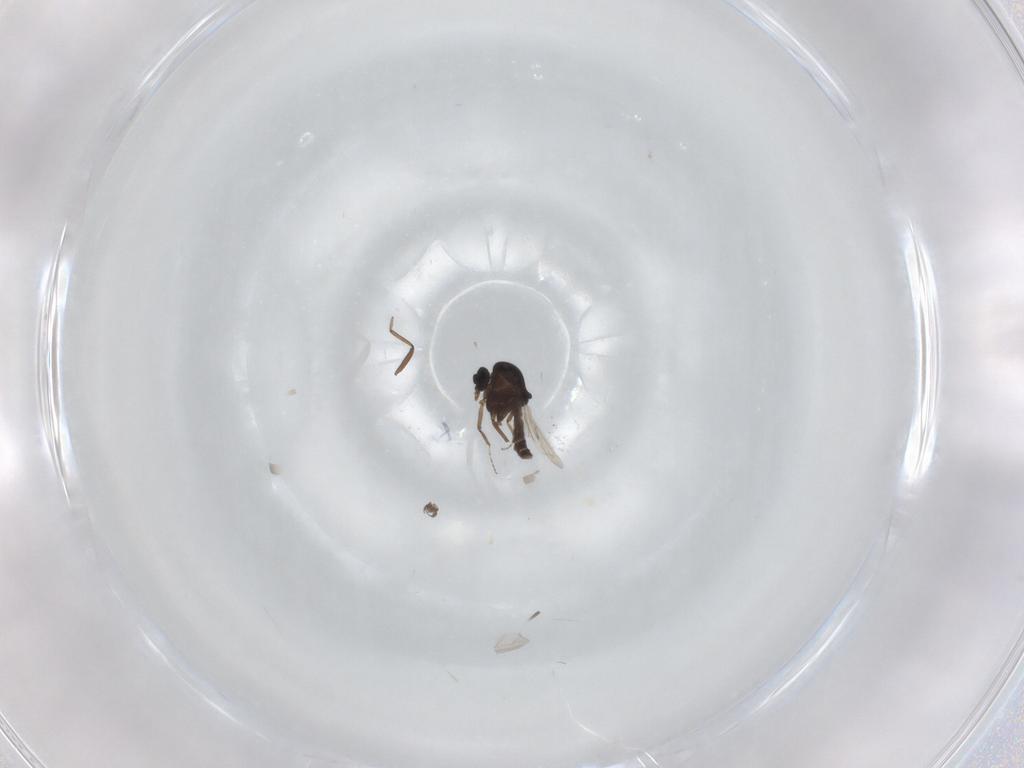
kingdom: Animalia
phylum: Arthropoda
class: Insecta
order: Diptera
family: Ceratopogonidae
